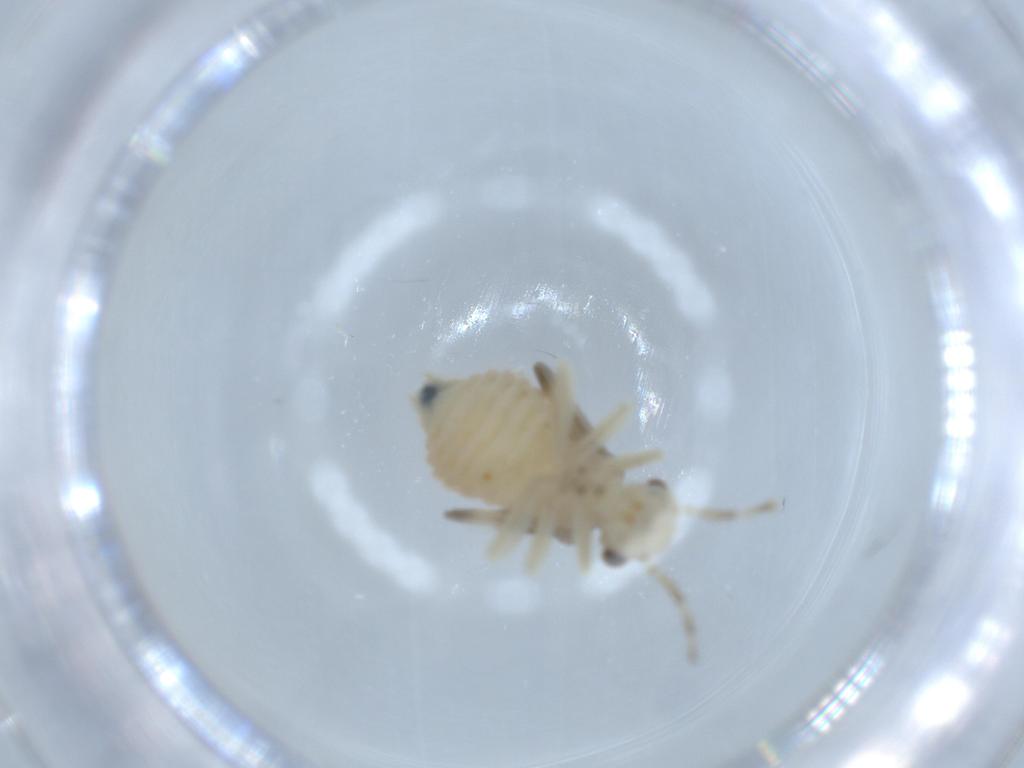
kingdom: Animalia
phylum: Arthropoda
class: Insecta
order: Psocodea
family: Amphipsocidae
